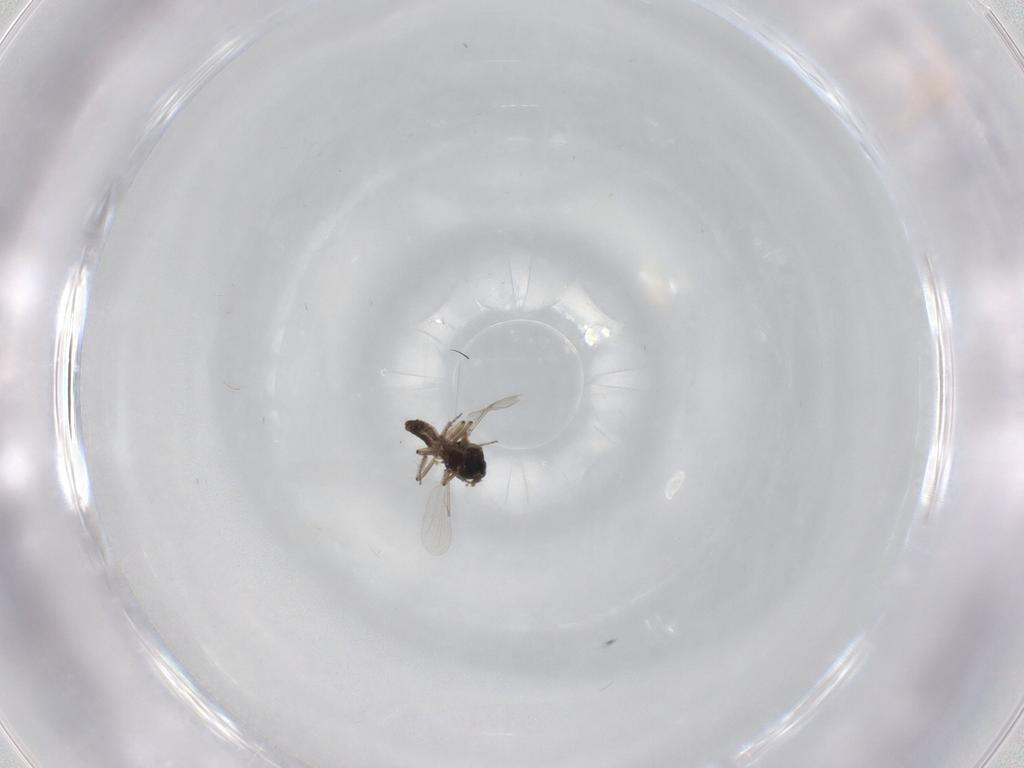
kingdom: Animalia
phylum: Arthropoda
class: Insecta
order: Diptera
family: Ceratopogonidae
